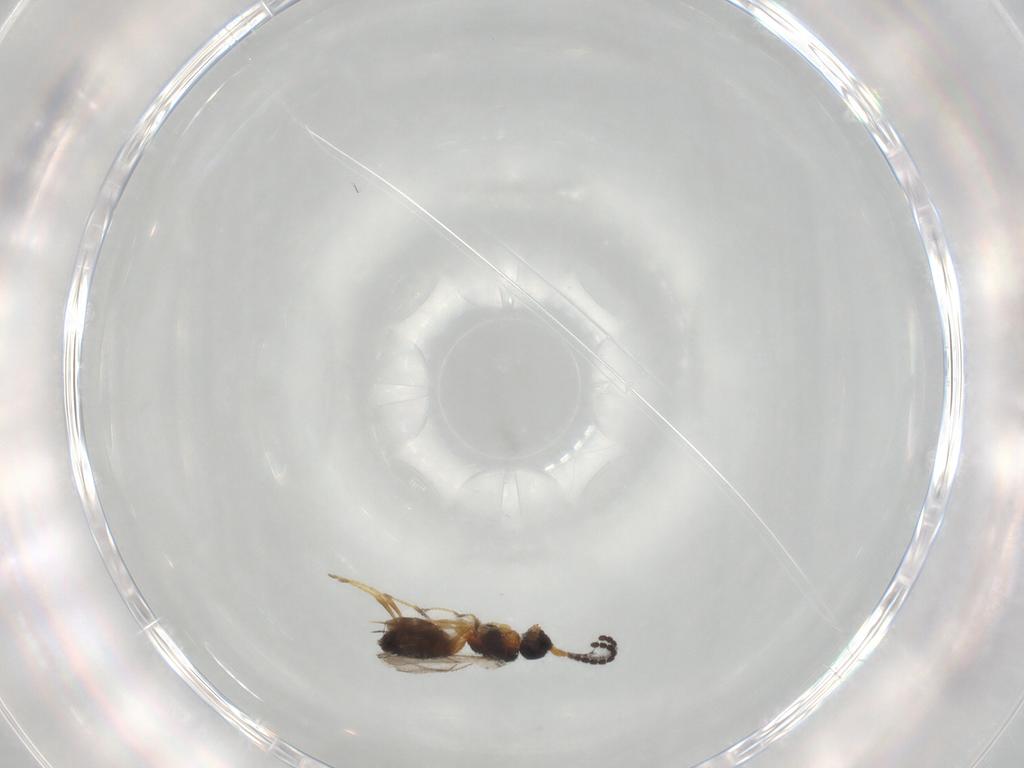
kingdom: Animalia
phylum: Arthropoda
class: Insecta
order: Hymenoptera
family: Braconidae
